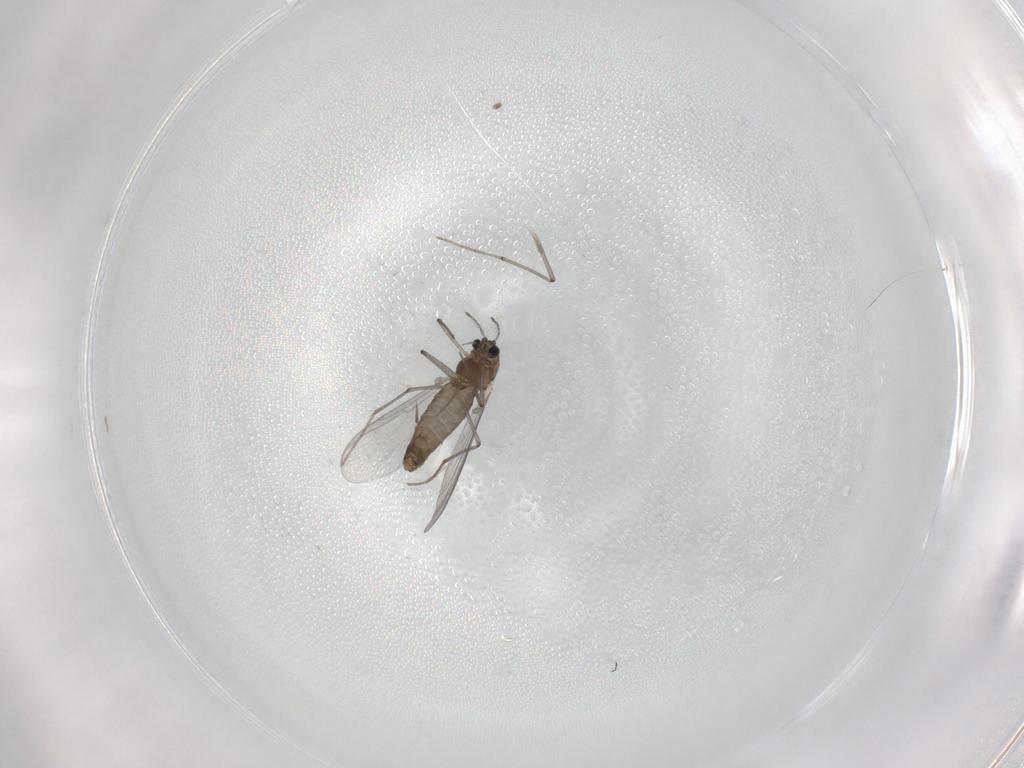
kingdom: Animalia
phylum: Arthropoda
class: Insecta
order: Diptera
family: Chironomidae
